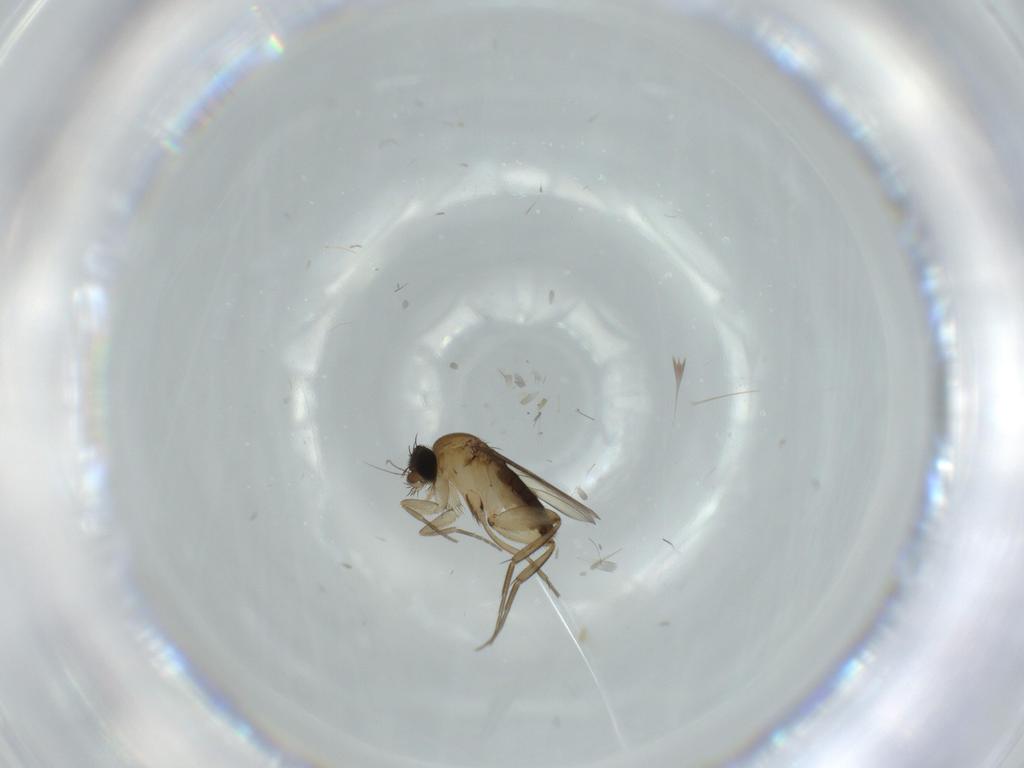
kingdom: Animalia
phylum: Arthropoda
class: Insecta
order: Diptera
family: Phoridae
